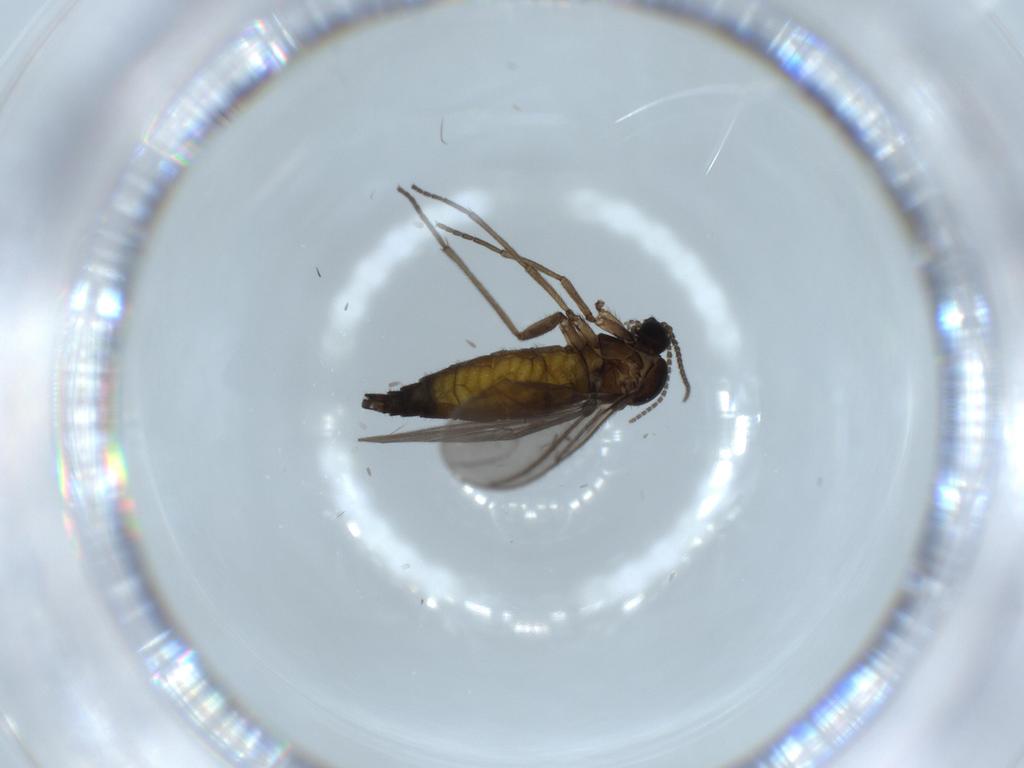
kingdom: Animalia
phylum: Arthropoda
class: Insecta
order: Diptera
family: Sciaridae
